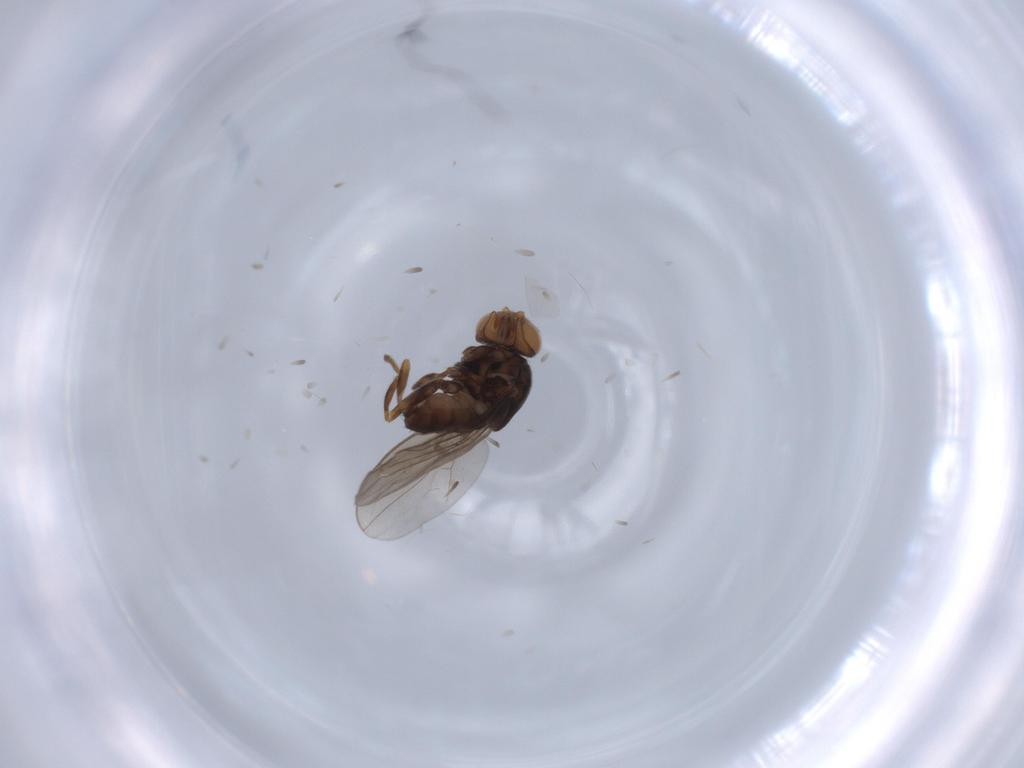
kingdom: Animalia
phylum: Arthropoda
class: Insecta
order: Diptera
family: Chloropidae
